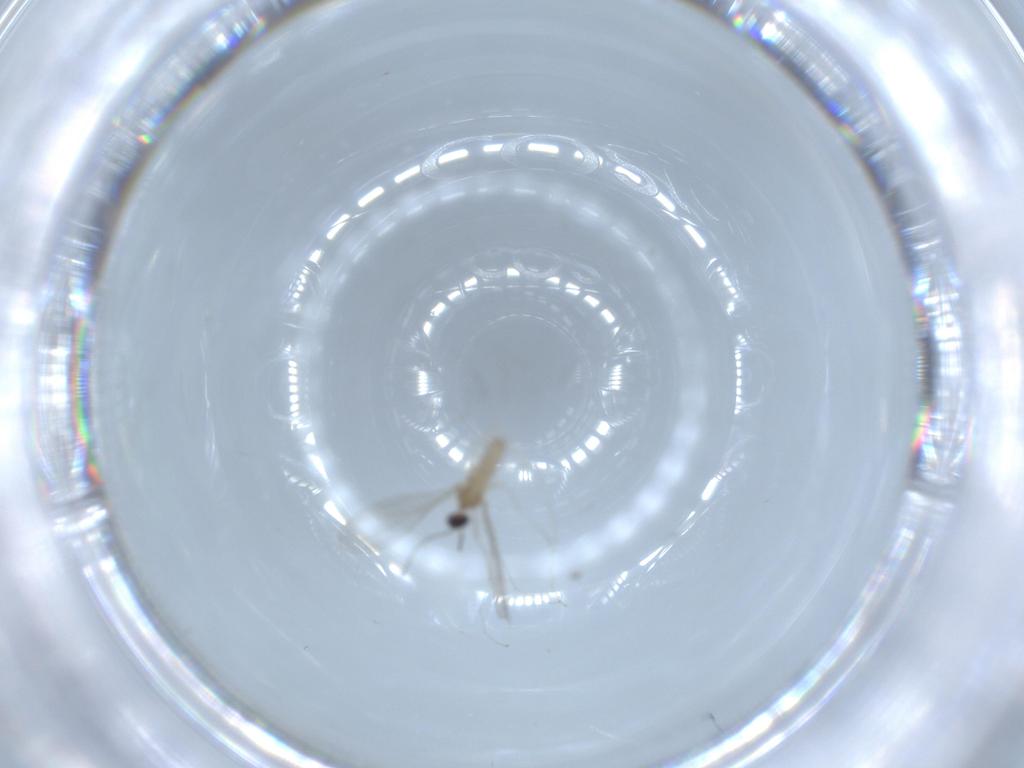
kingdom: Animalia
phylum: Arthropoda
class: Insecta
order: Diptera
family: Cecidomyiidae
